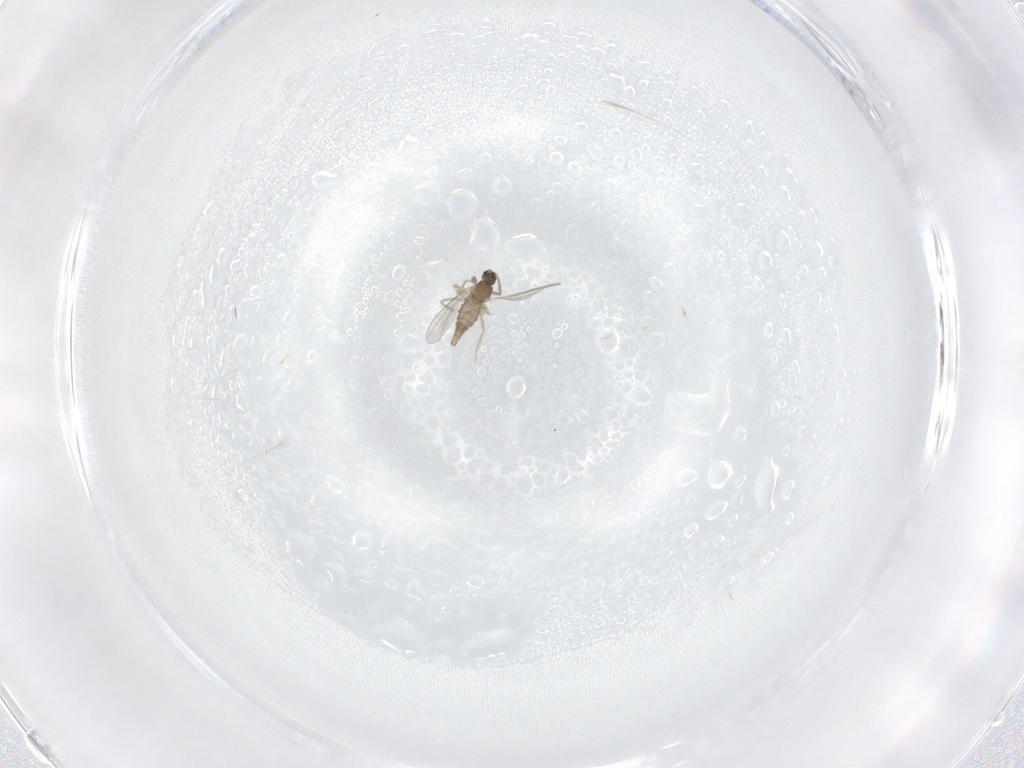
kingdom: Animalia
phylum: Arthropoda
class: Insecta
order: Diptera
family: Cecidomyiidae
